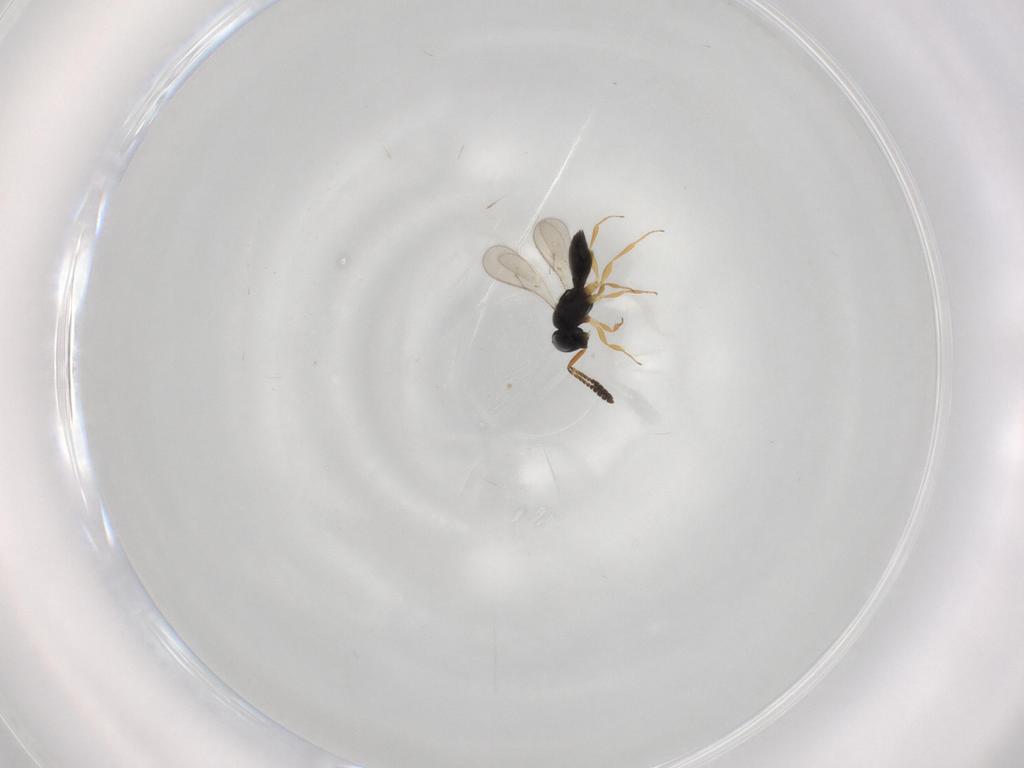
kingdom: Animalia
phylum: Arthropoda
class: Insecta
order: Hymenoptera
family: Scelionidae
